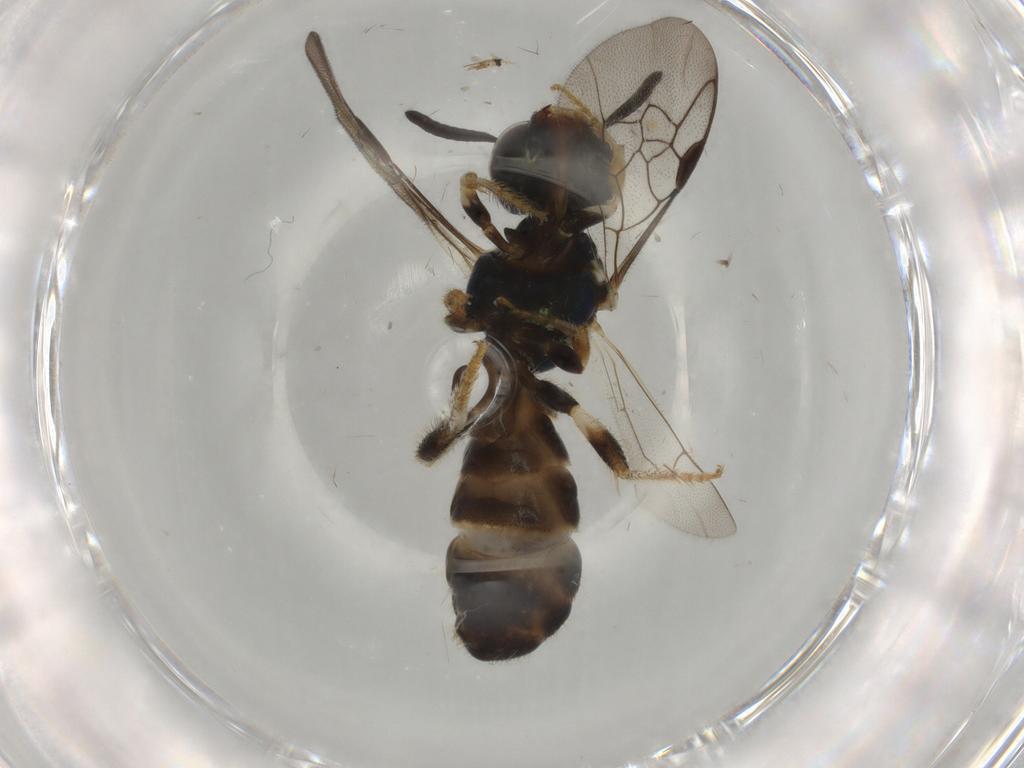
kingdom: Animalia
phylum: Arthropoda
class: Insecta
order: Hymenoptera
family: Apidae
